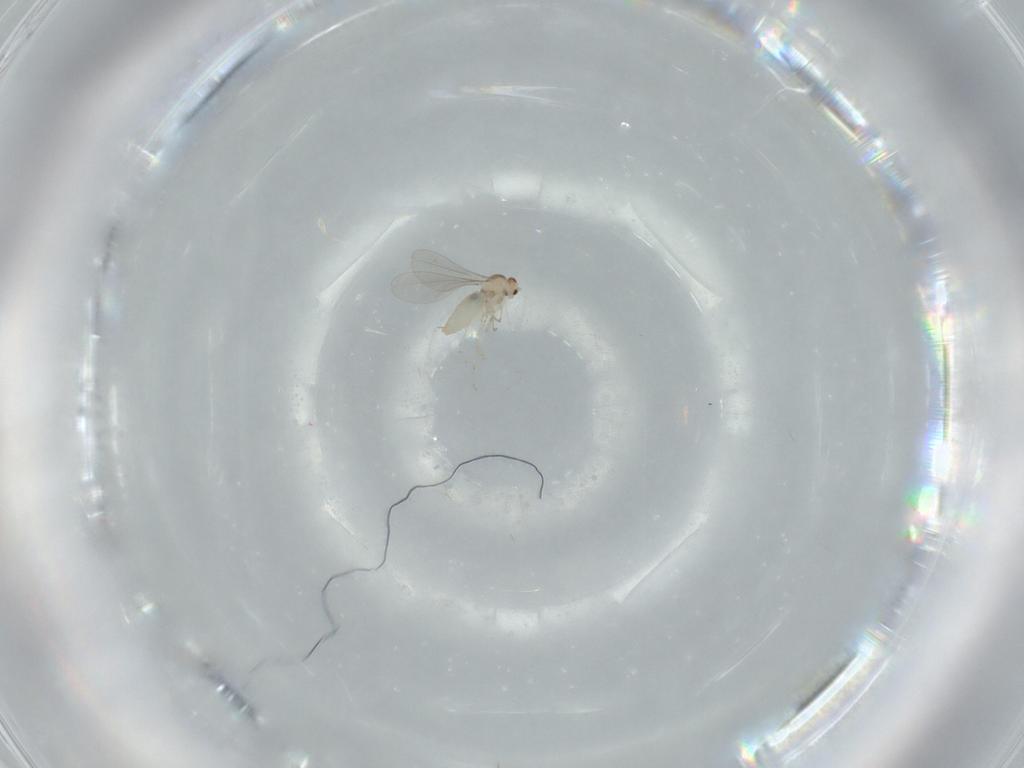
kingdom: Animalia
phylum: Arthropoda
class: Insecta
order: Diptera
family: Cecidomyiidae
